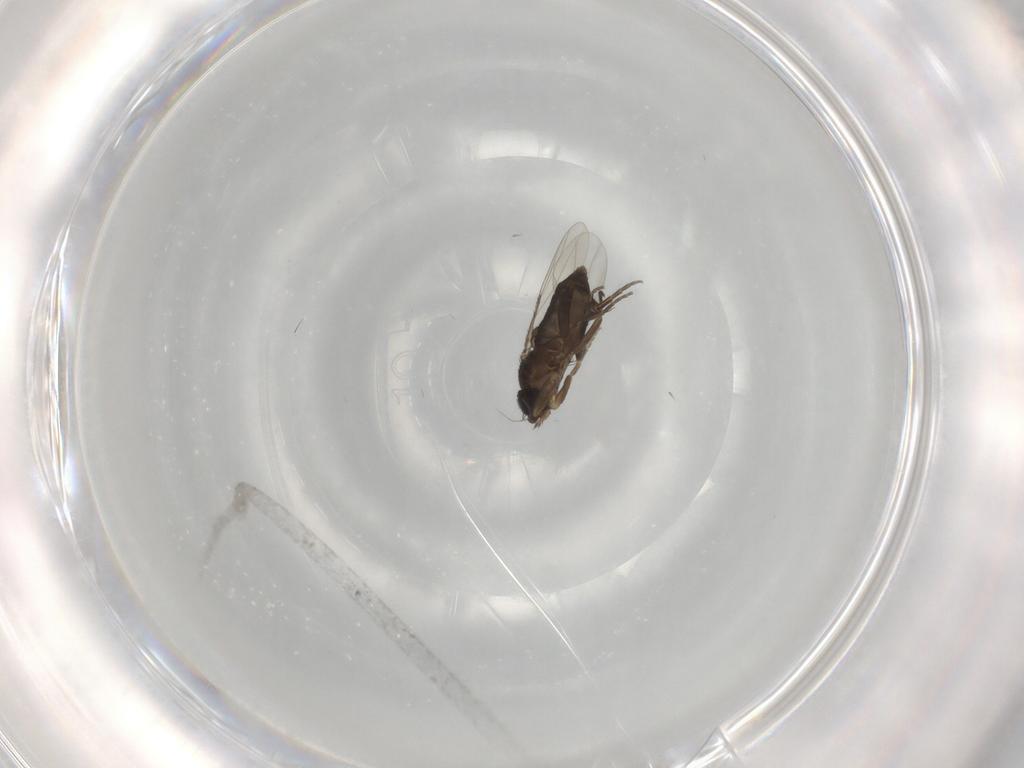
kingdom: Animalia
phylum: Arthropoda
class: Insecta
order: Diptera
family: Phoridae
